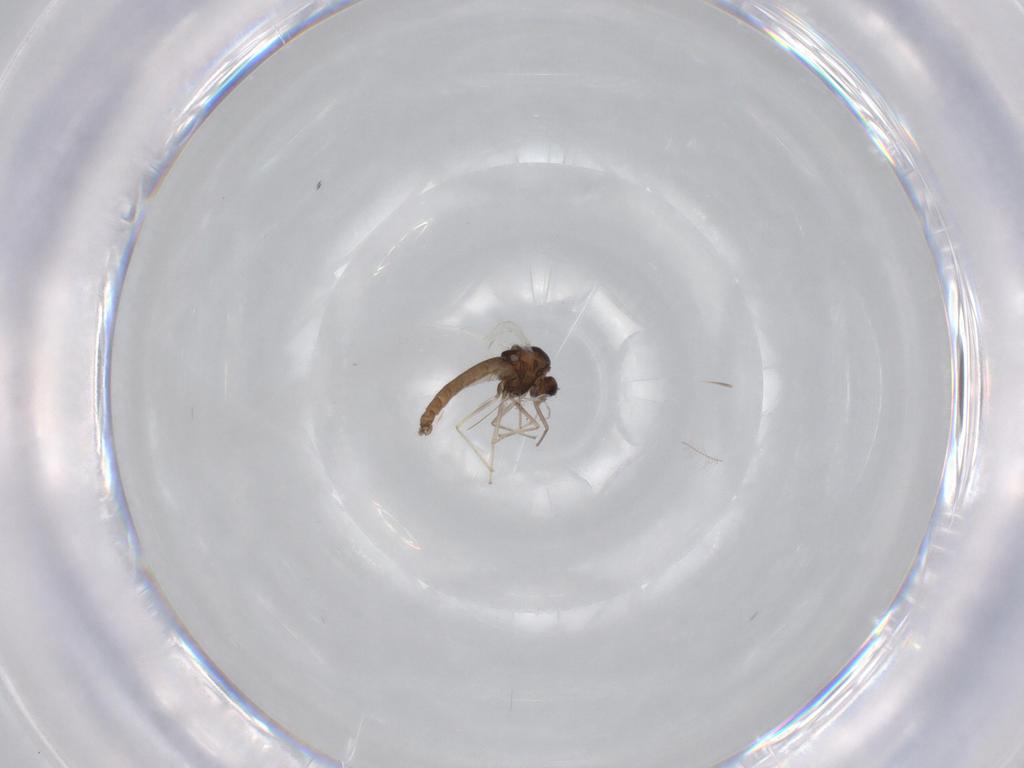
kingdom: Animalia
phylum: Arthropoda
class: Insecta
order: Diptera
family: Chironomidae
